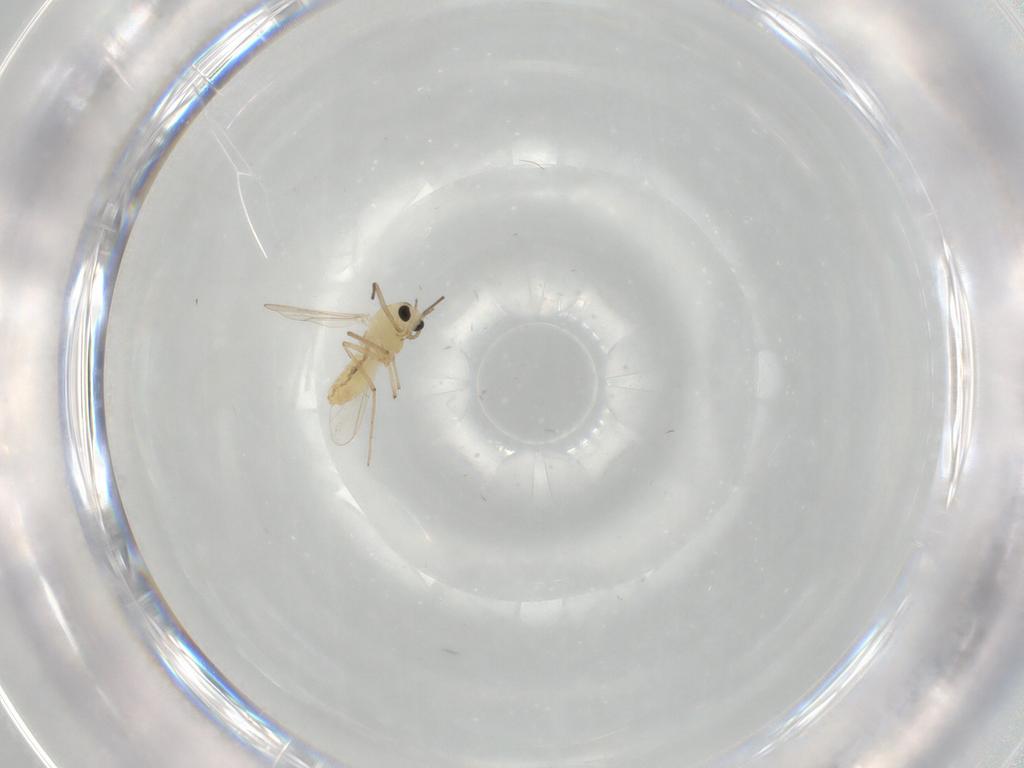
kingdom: Animalia
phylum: Arthropoda
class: Insecta
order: Diptera
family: Chironomidae
